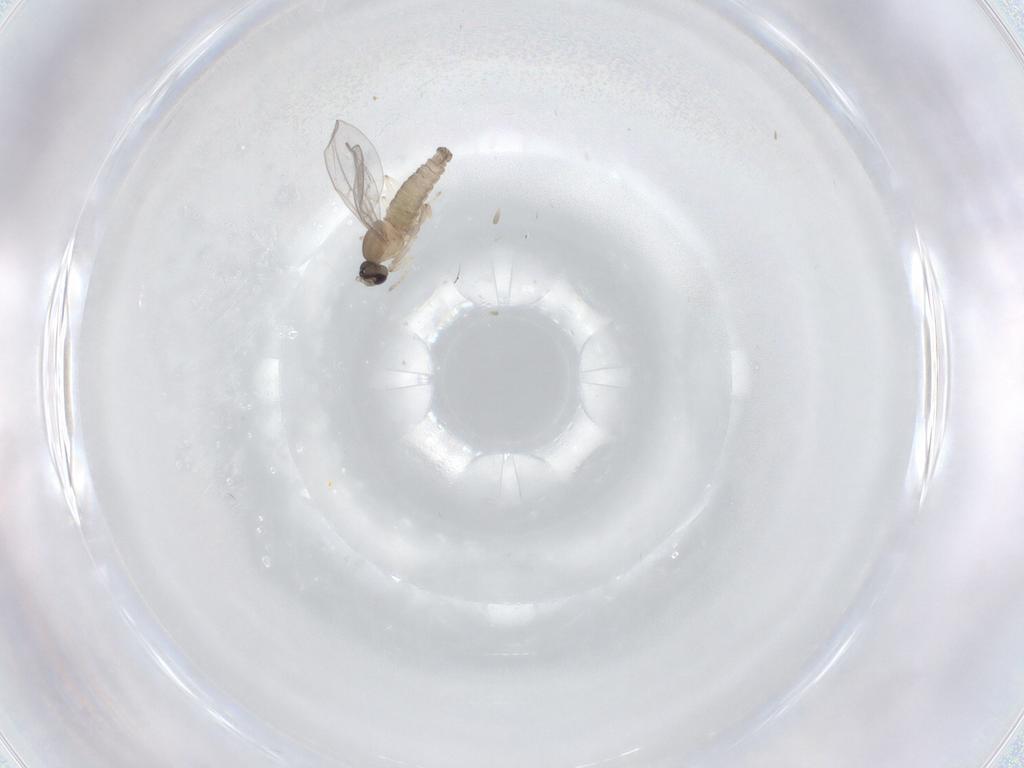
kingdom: Animalia
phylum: Arthropoda
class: Insecta
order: Diptera
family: Cecidomyiidae
